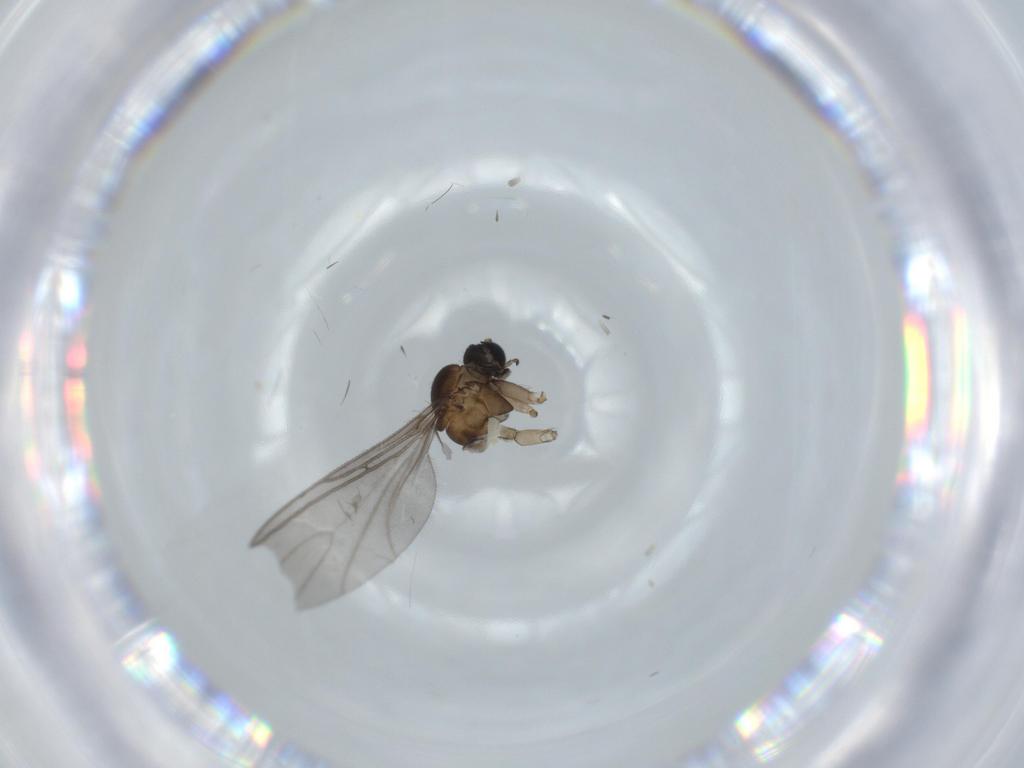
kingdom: Animalia
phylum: Arthropoda
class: Insecta
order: Diptera
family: Sciaridae
